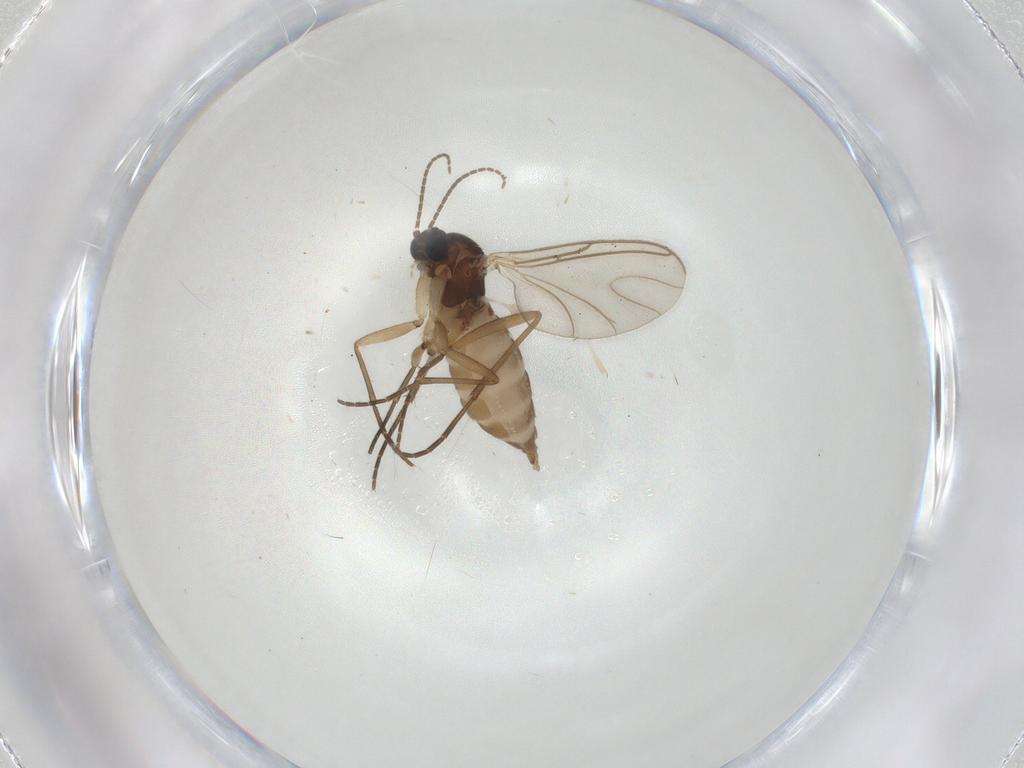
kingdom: Animalia
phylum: Arthropoda
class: Insecta
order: Diptera
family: Sciaridae
